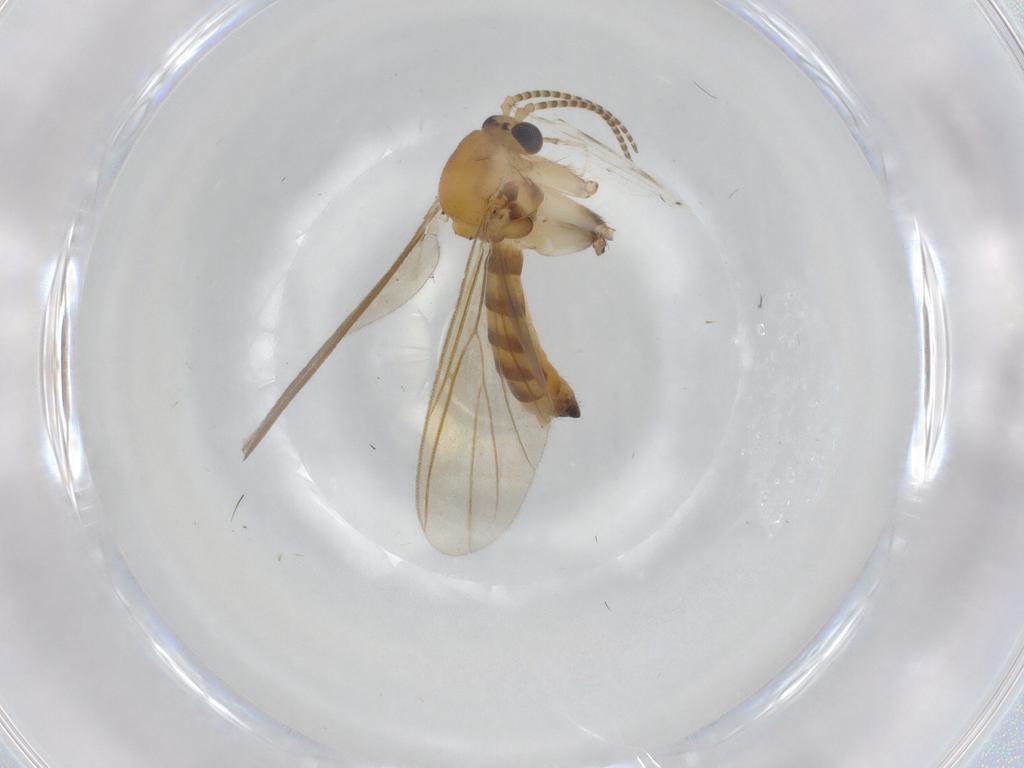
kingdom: Animalia
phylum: Arthropoda
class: Insecta
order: Diptera
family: Mycetophilidae
